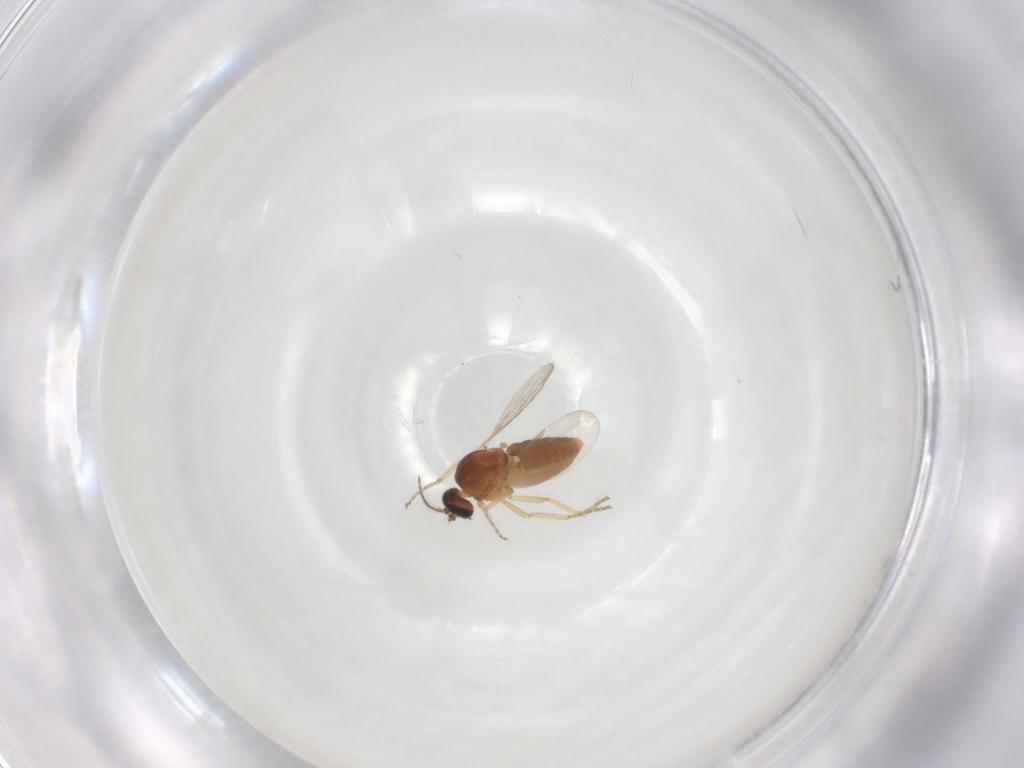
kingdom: Animalia
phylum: Arthropoda
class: Insecta
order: Diptera
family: Ceratopogonidae
